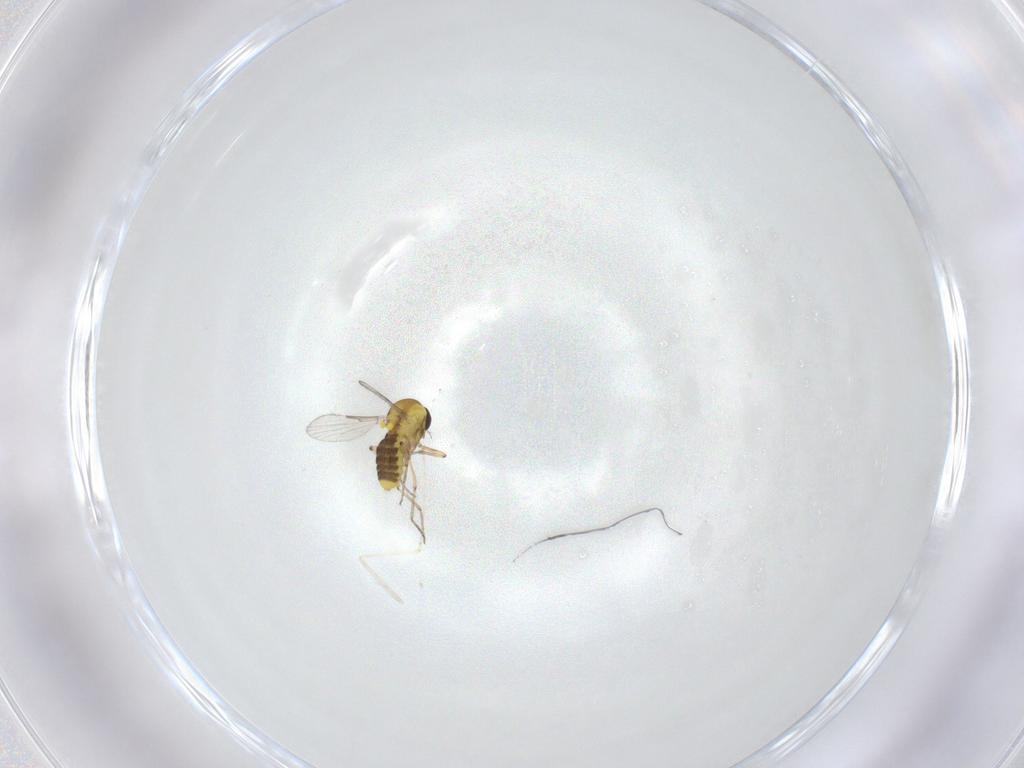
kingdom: Animalia
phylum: Arthropoda
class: Insecta
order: Diptera
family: Ceratopogonidae
